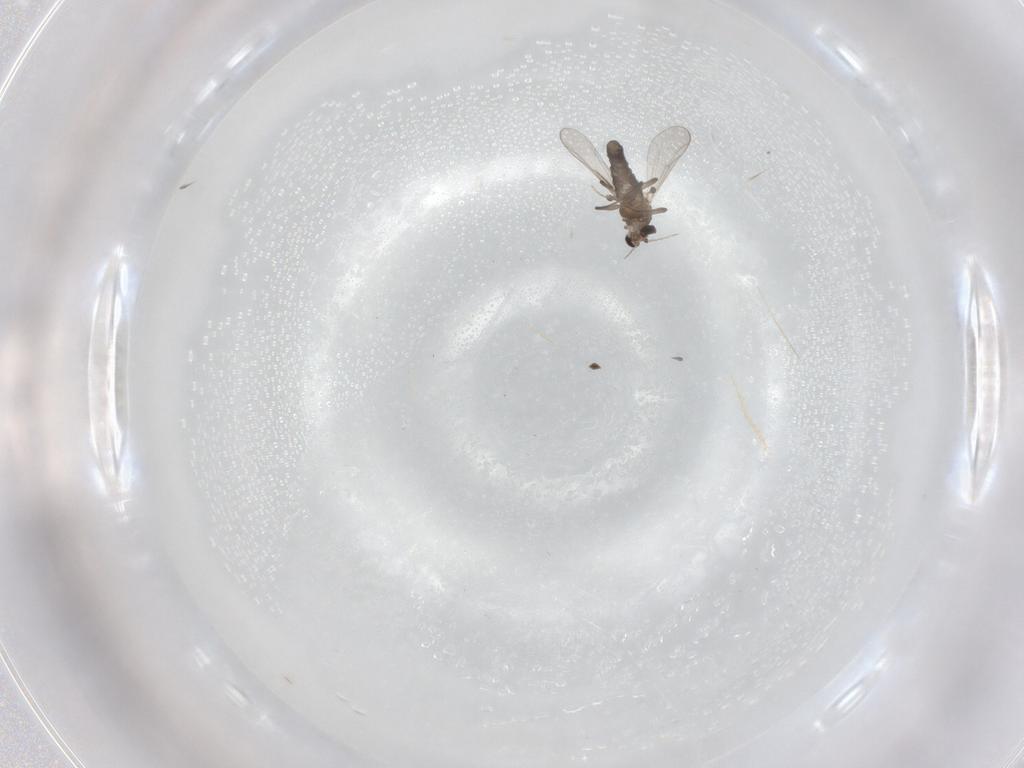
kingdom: Animalia
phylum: Arthropoda
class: Insecta
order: Diptera
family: Chironomidae
